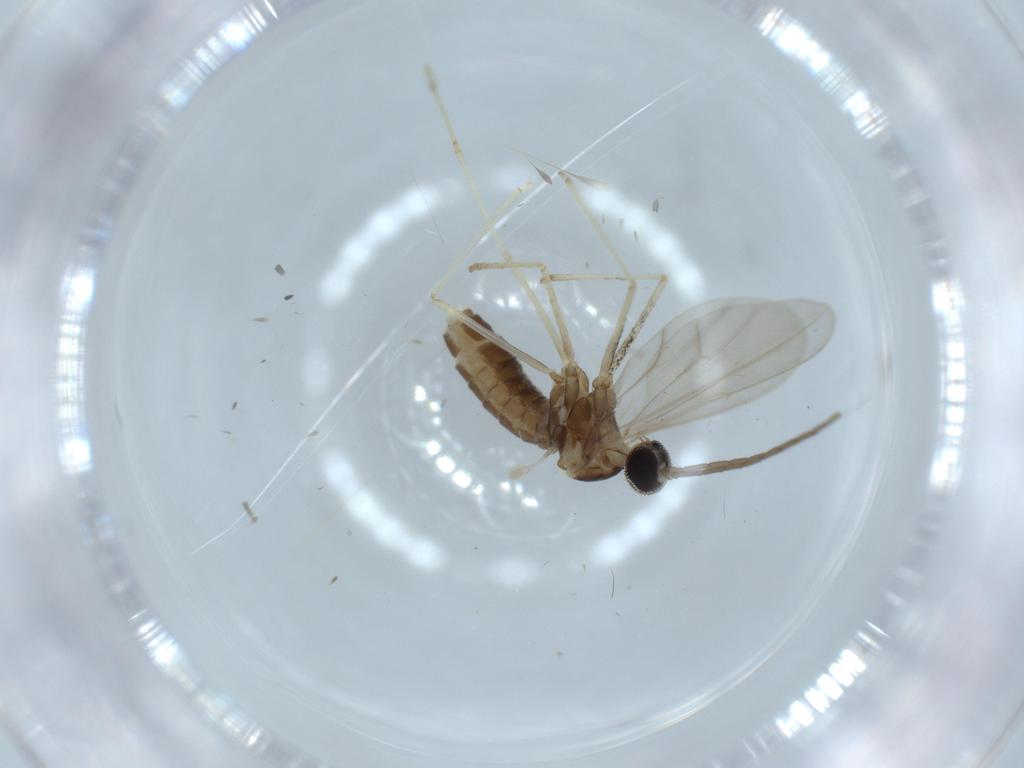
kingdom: Animalia
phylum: Arthropoda
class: Insecta
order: Diptera
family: Cecidomyiidae
